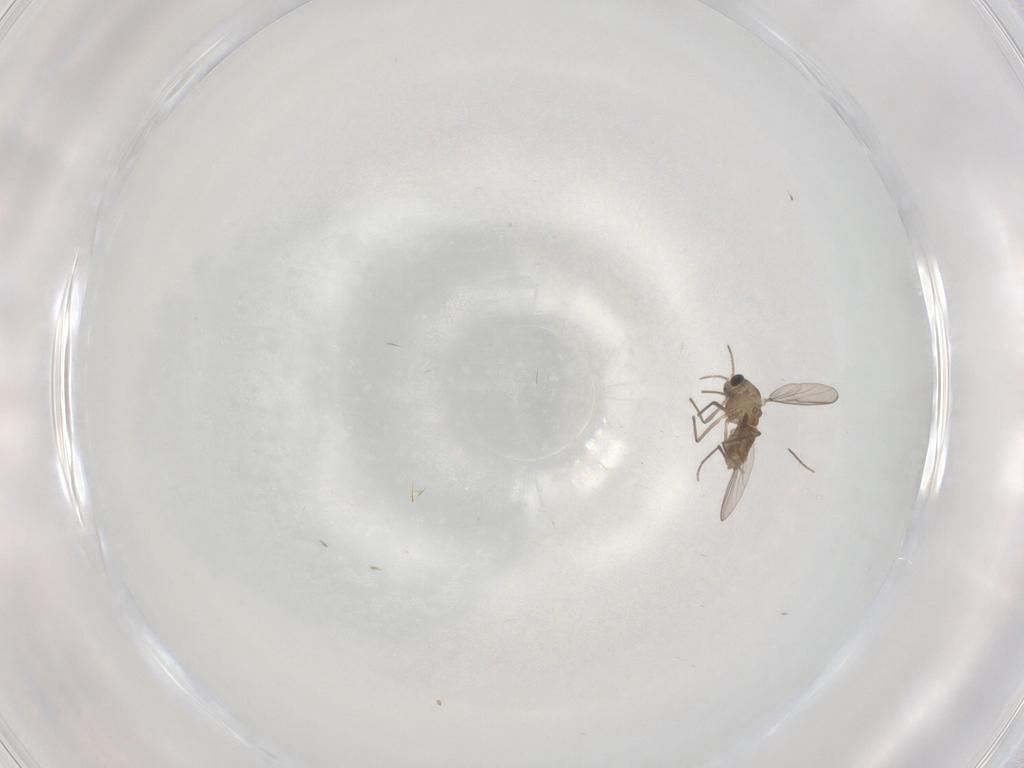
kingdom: Animalia
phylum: Arthropoda
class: Insecta
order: Diptera
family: Chironomidae
